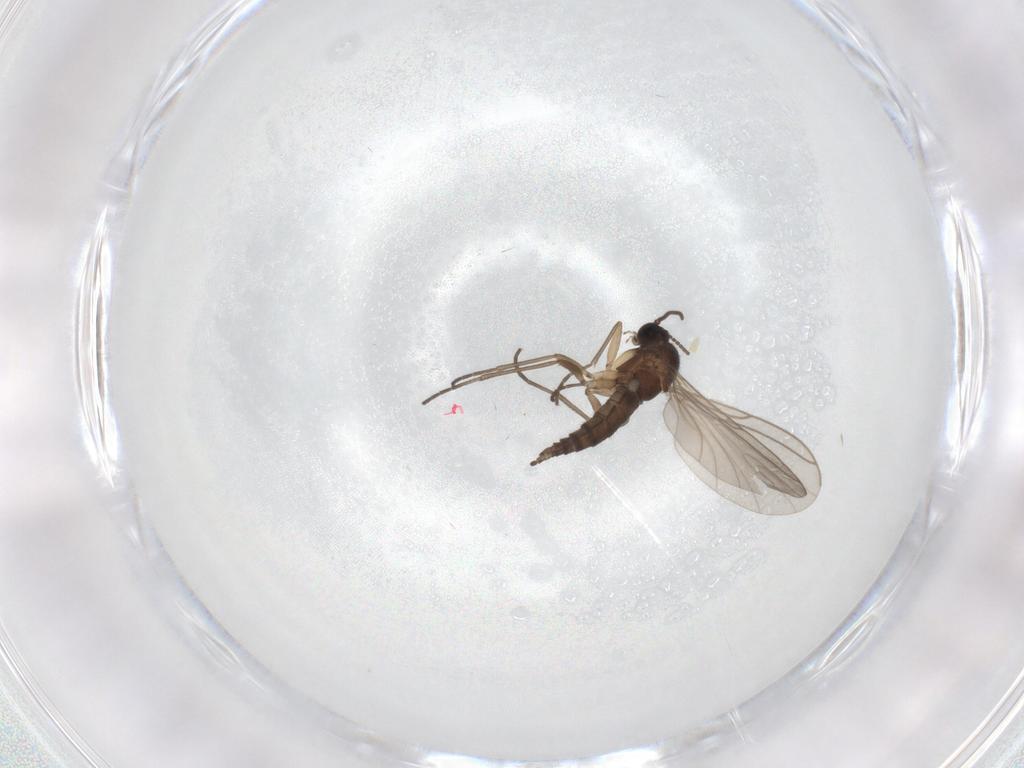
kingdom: Animalia
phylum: Arthropoda
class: Insecta
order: Diptera
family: Sciaridae
